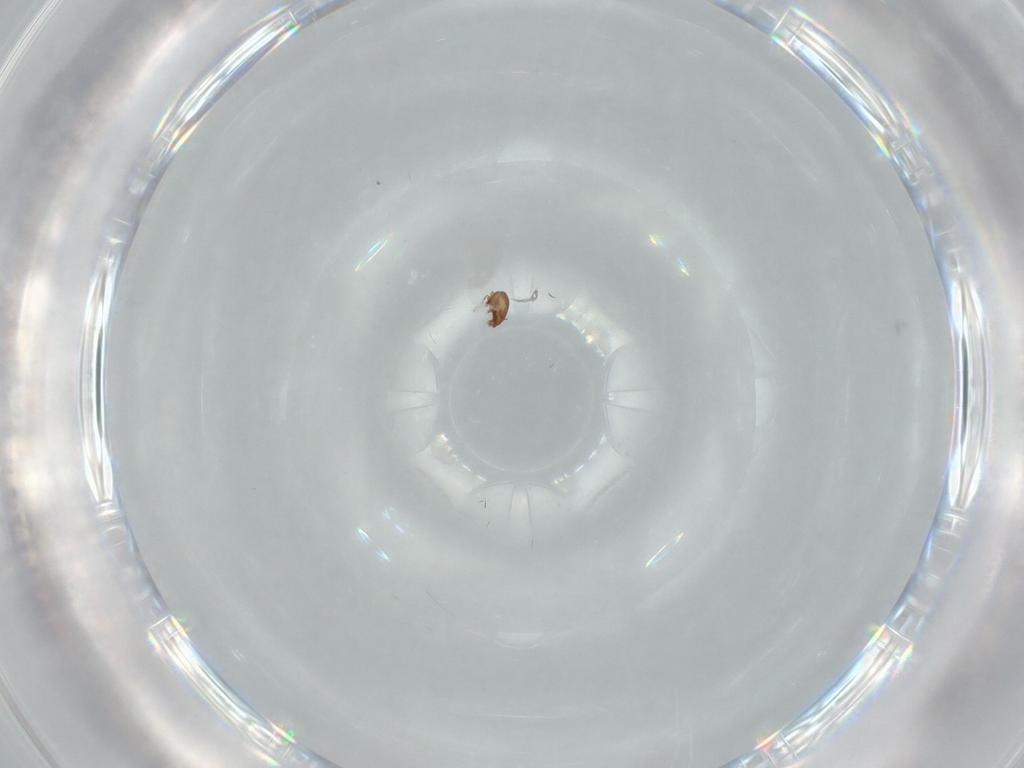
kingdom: Animalia
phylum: Arthropoda
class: Arachnida
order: Sarcoptiformes
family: Tectocepheidae
